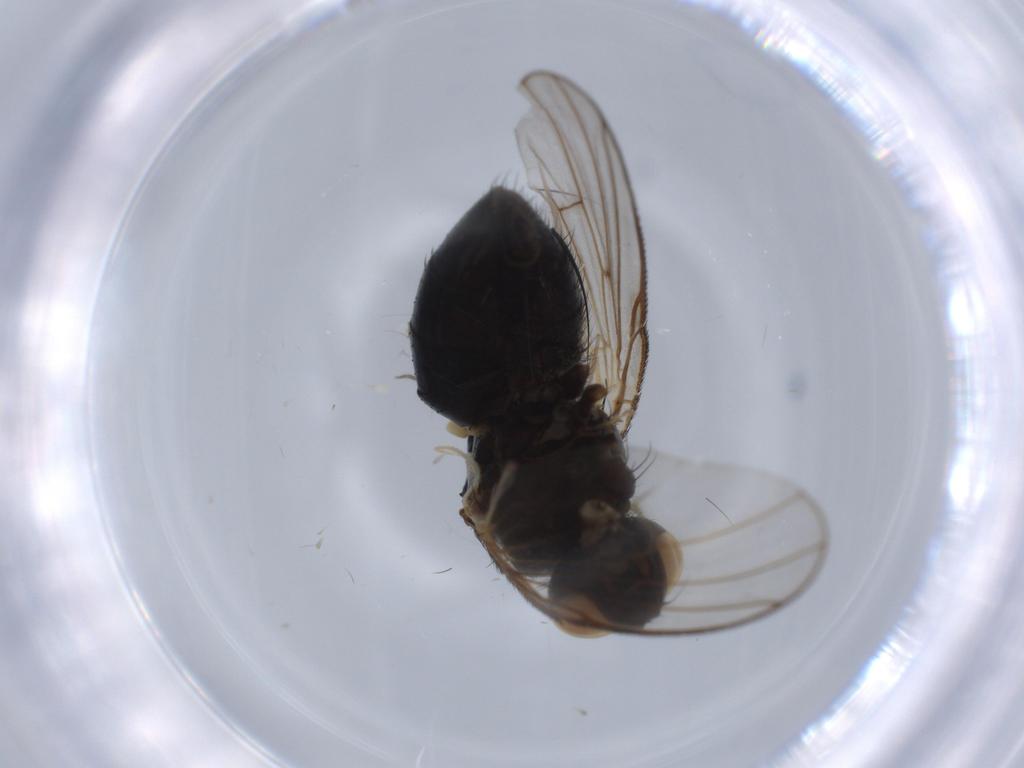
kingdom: Animalia
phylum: Arthropoda
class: Insecta
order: Diptera
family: Muscidae
